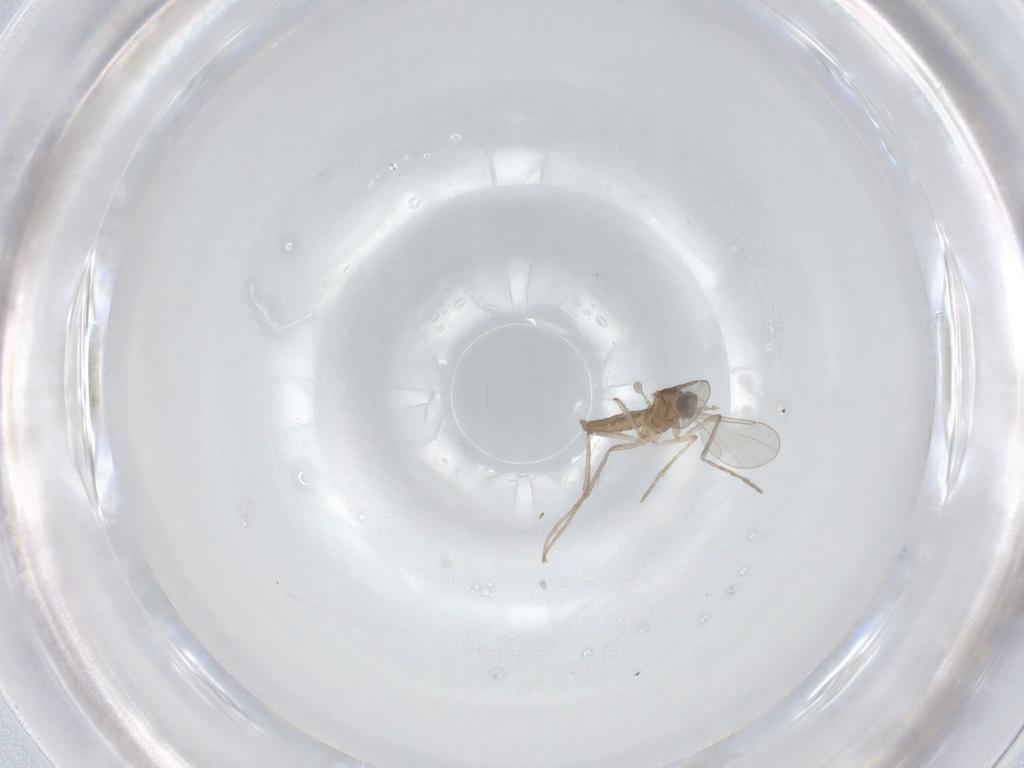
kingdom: Animalia
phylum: Arthropoda
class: Insecta
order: Diptera
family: Cecidomyiidae
